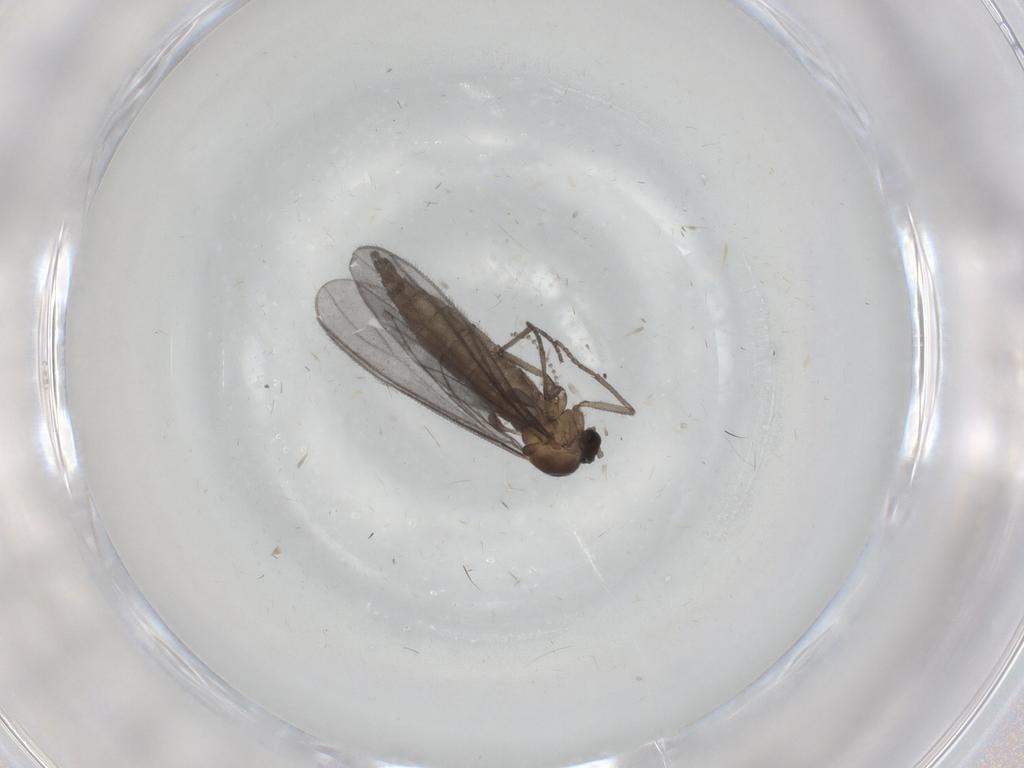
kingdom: Animalia
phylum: Arthropoda
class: Insecta
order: Diptera
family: Sciaridae
